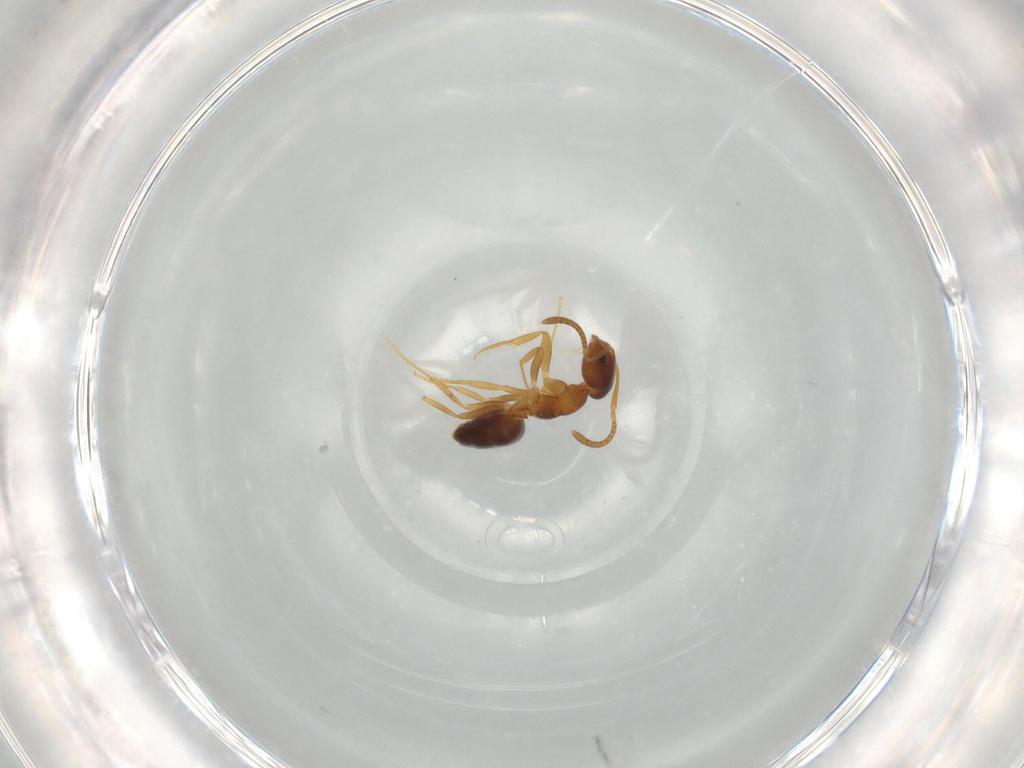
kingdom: Animalia
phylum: Arthropoda
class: Insecta
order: Hymenoptera
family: Formicidae
